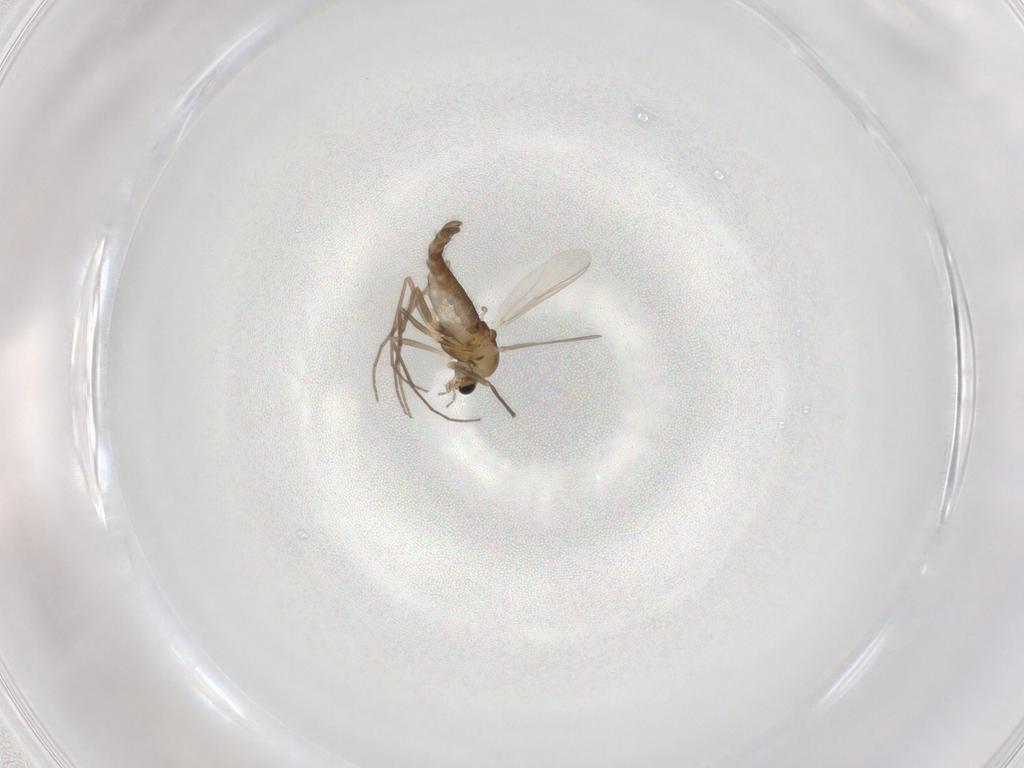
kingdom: Animalia
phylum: Arthropoda
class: Insecta
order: Diptera
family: Chironomidae
